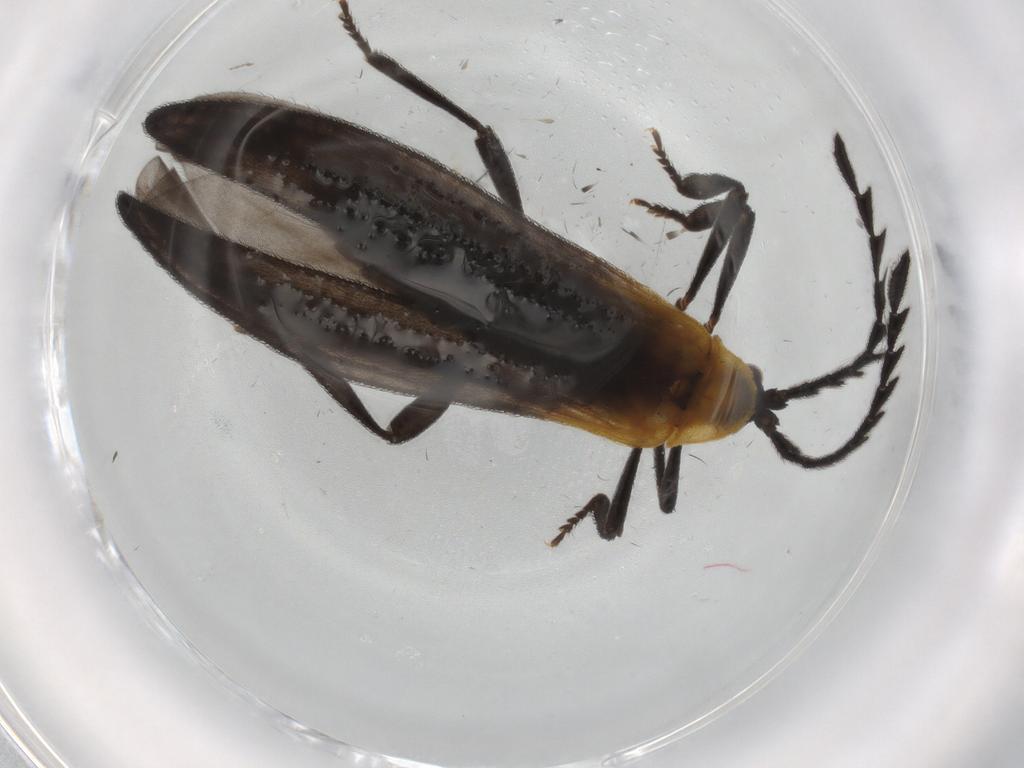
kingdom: Animalia
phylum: Arthropoda
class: Insecta
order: Coleoptera
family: Lycidae
